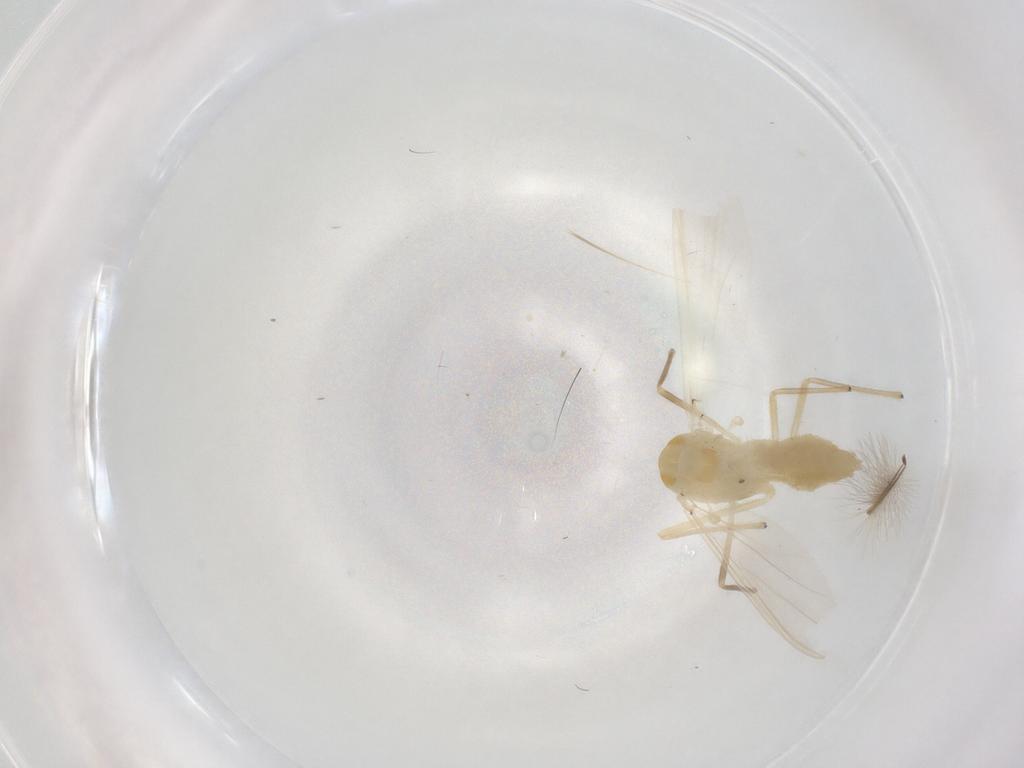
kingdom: Animalia
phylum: Arthropoda
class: Insecta
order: Diptera
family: Chironomidae
